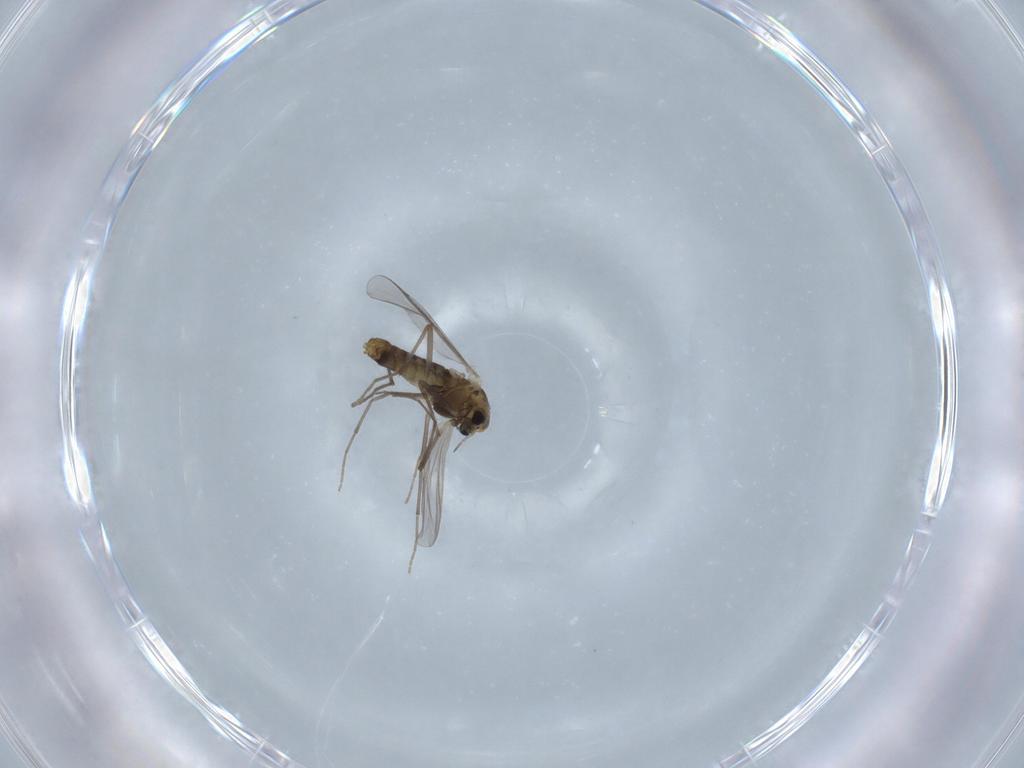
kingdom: Animalia
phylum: Arthropoda
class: Insecta
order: Diptera
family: Chironomidae
